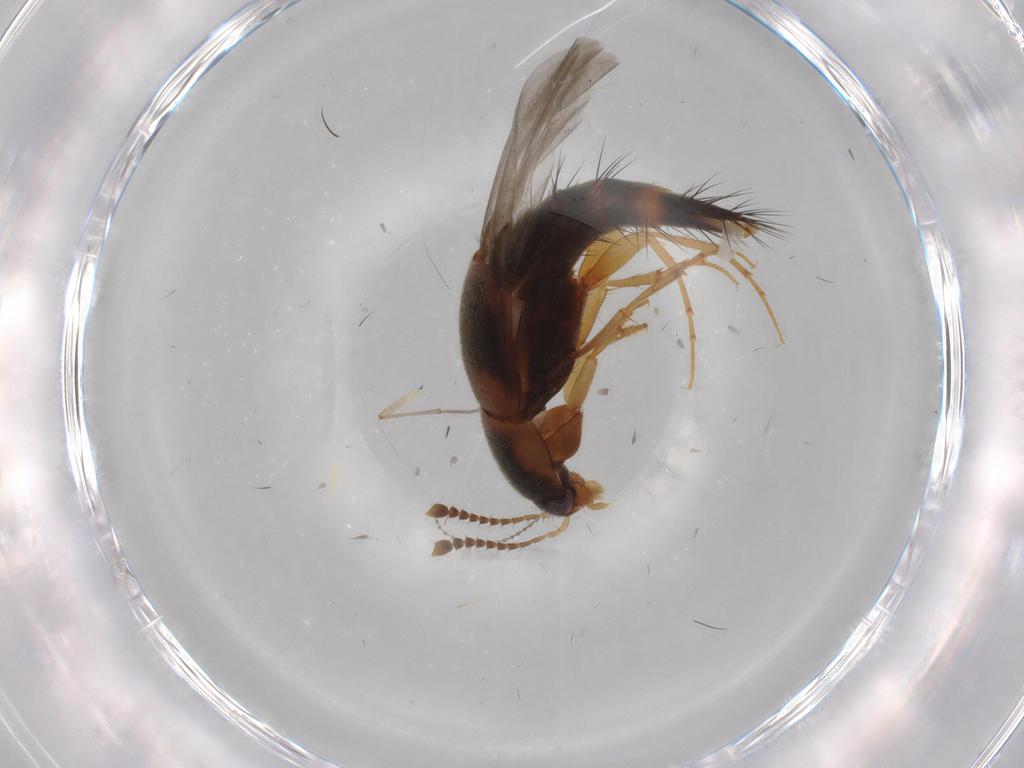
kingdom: Animalia
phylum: Arthropoda
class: Insecta
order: Coleoptera
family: Staphylinidae
